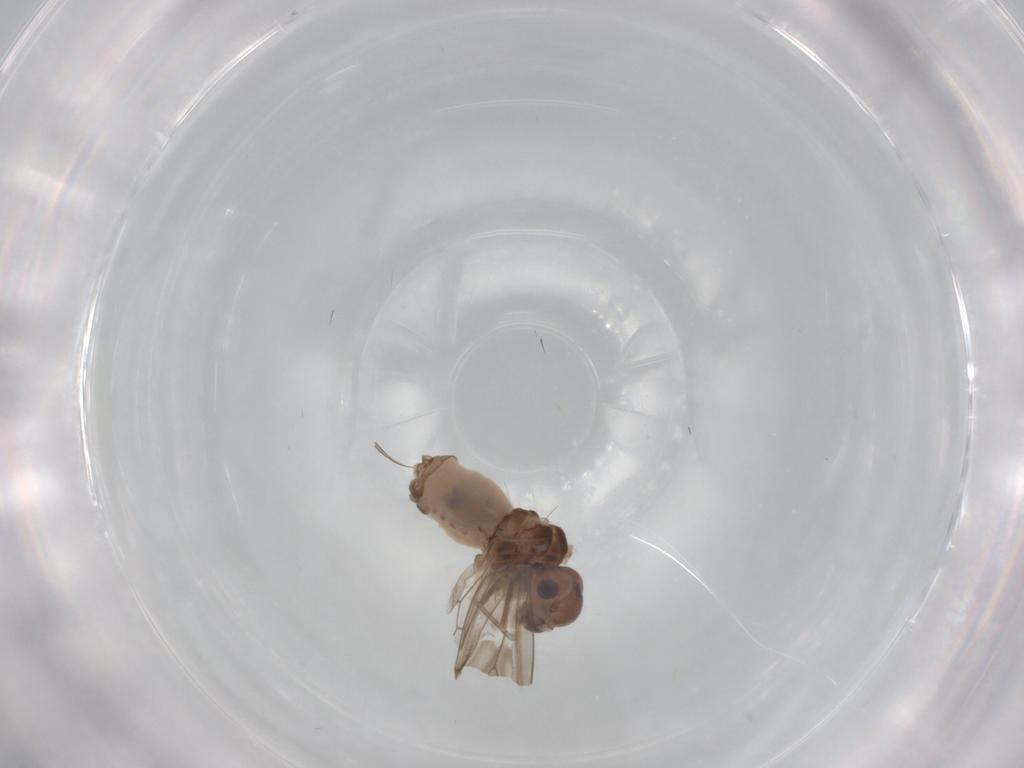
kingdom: Animalia
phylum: Arthropoda
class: Insecta
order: Psocodea
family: Peripsocidae
